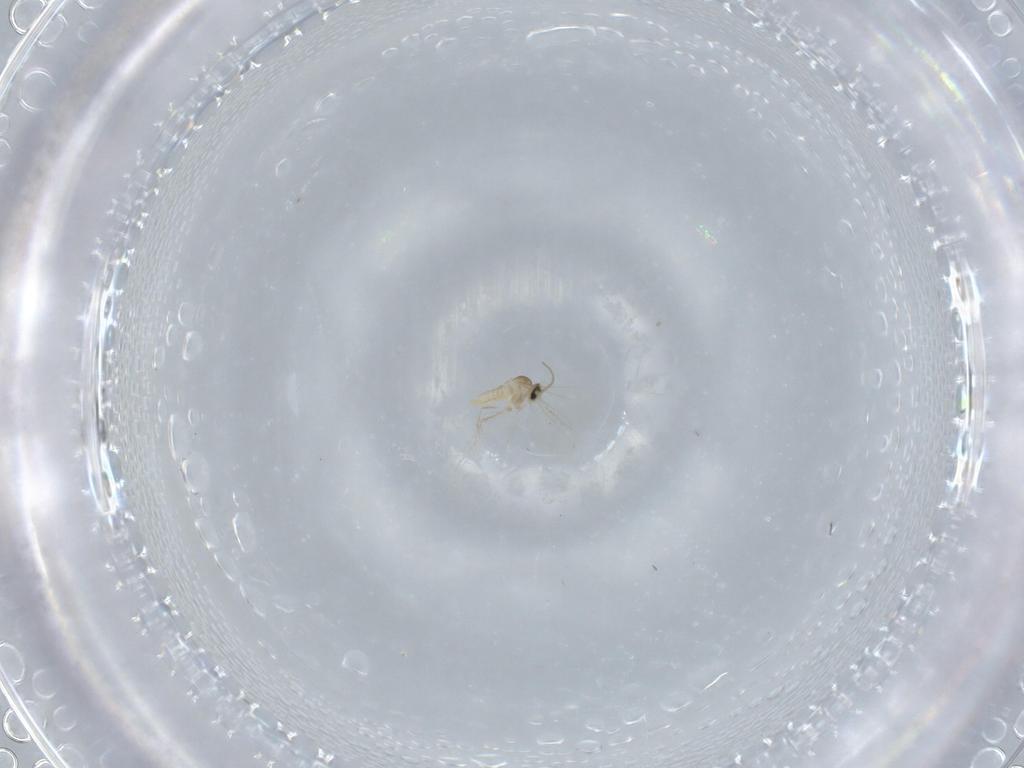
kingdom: Animalia
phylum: Arthropoda
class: Insecta
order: Diptera
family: Sciaridae
